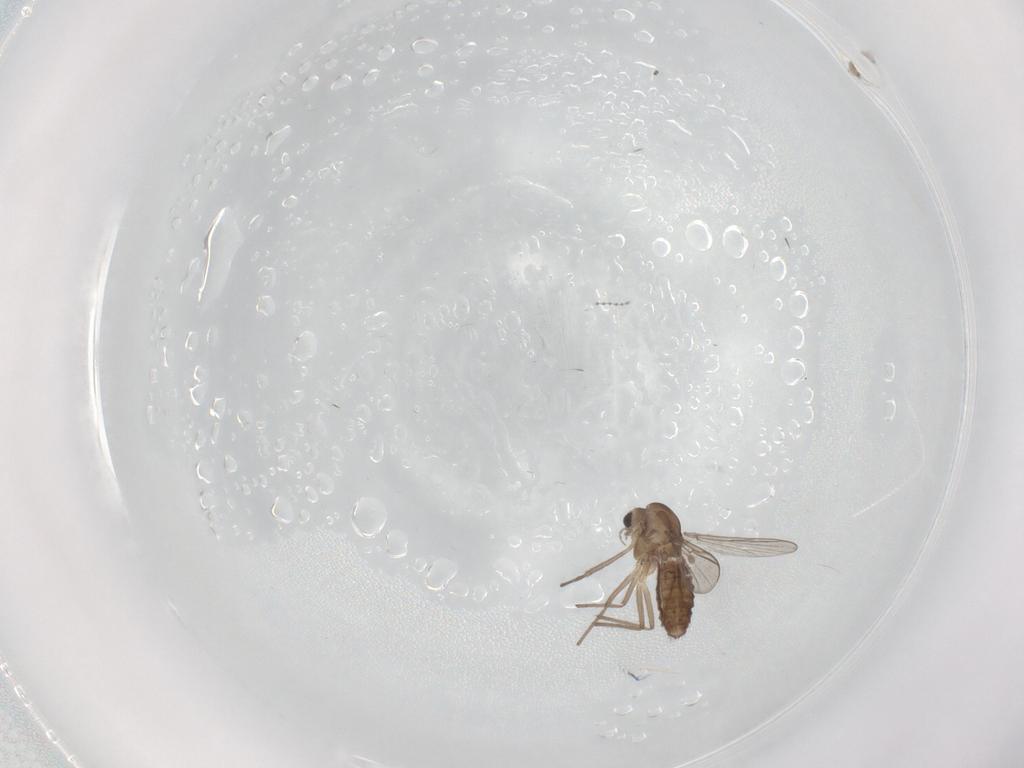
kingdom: Animalia
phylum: Arthropoda
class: Insecta
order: Diptera
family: Chironomidae
